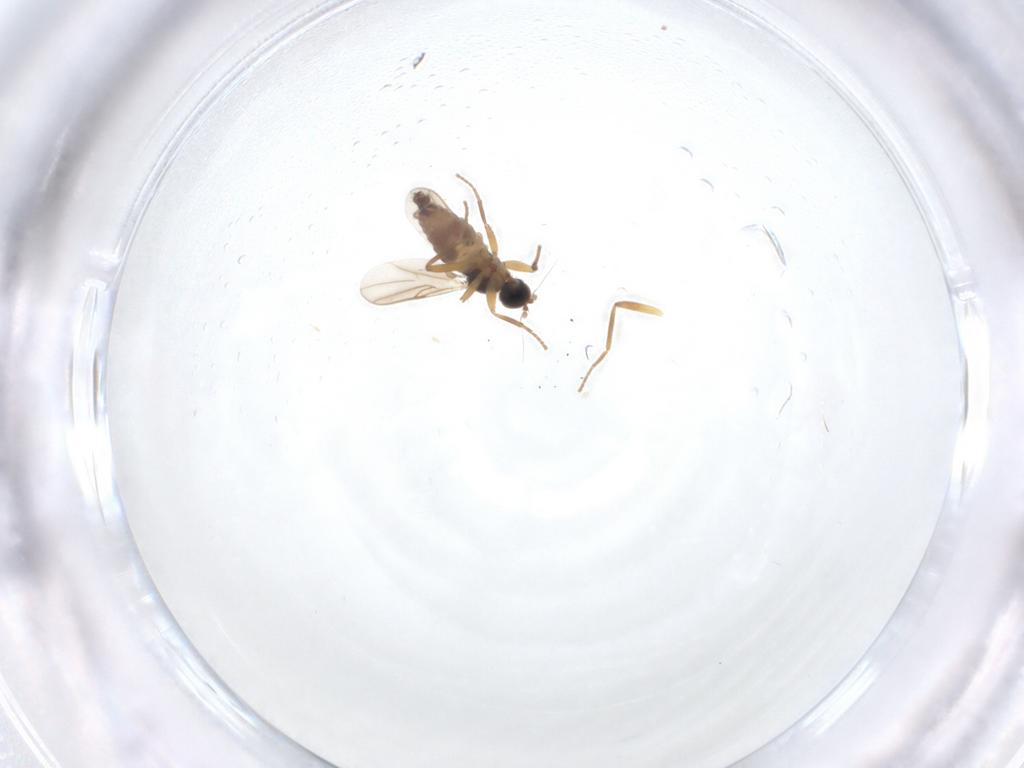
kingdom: Animalia
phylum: Arthropoda
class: Insecta
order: Diptera
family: Hybotidae
